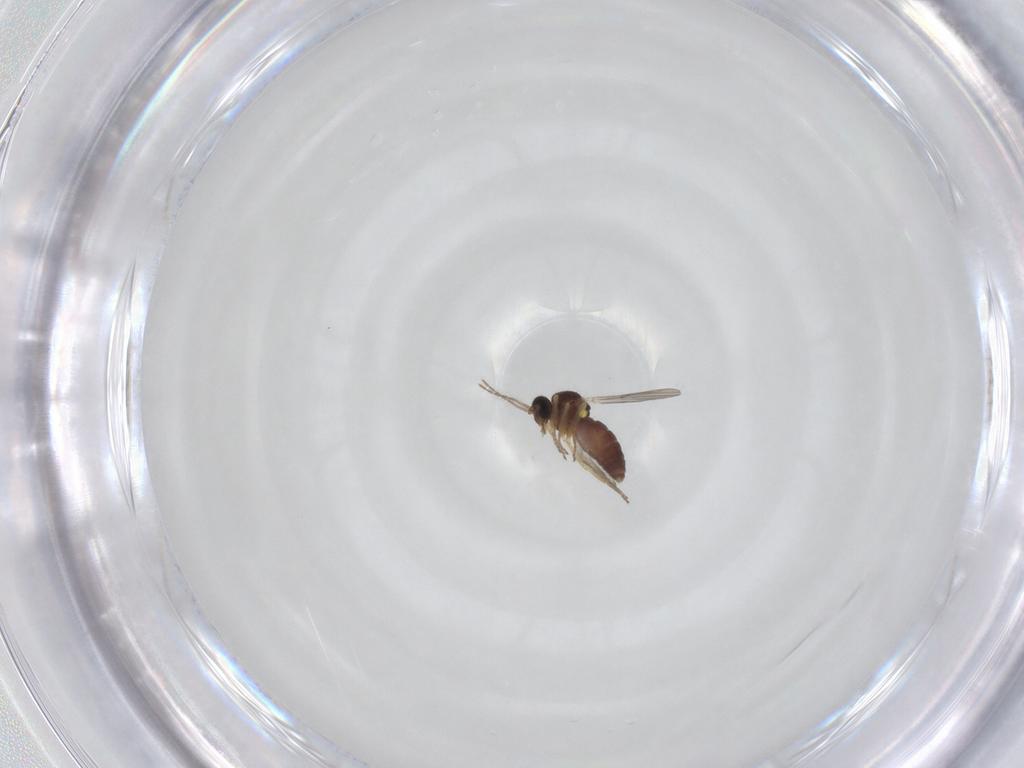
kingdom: Animalia
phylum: Arthropoda
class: Insecta
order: Diptera
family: Ceratopogonidae
